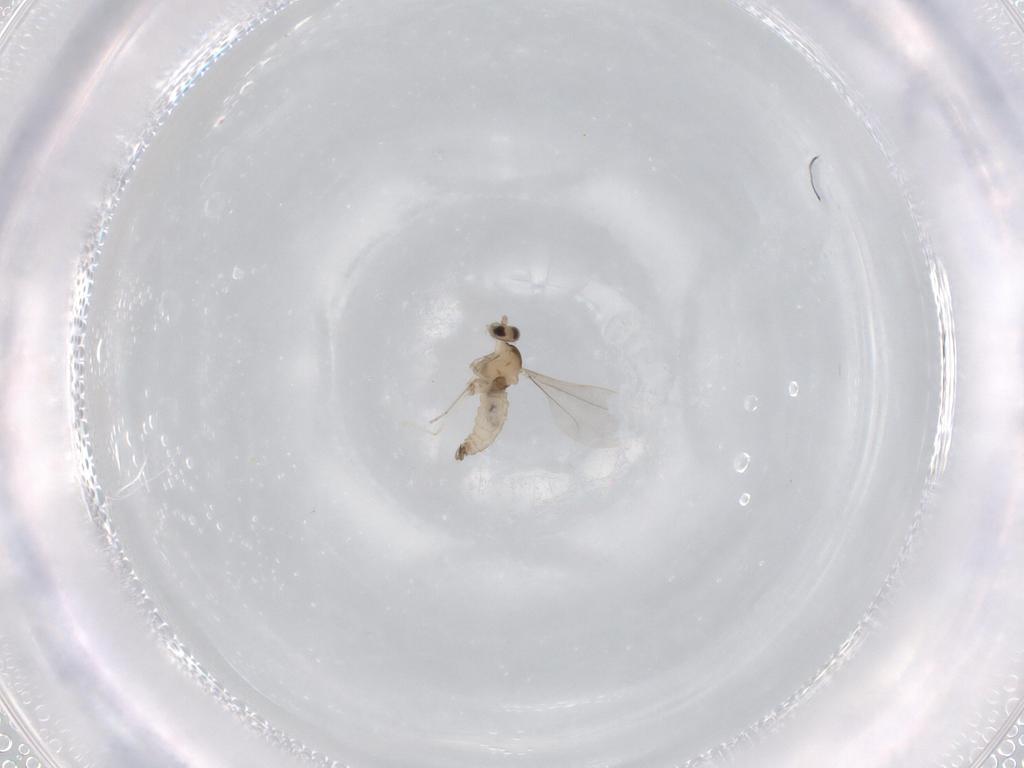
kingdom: Animalia
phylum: Arthropoda
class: Insecta
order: Diptera
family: Cecidomyiidae
